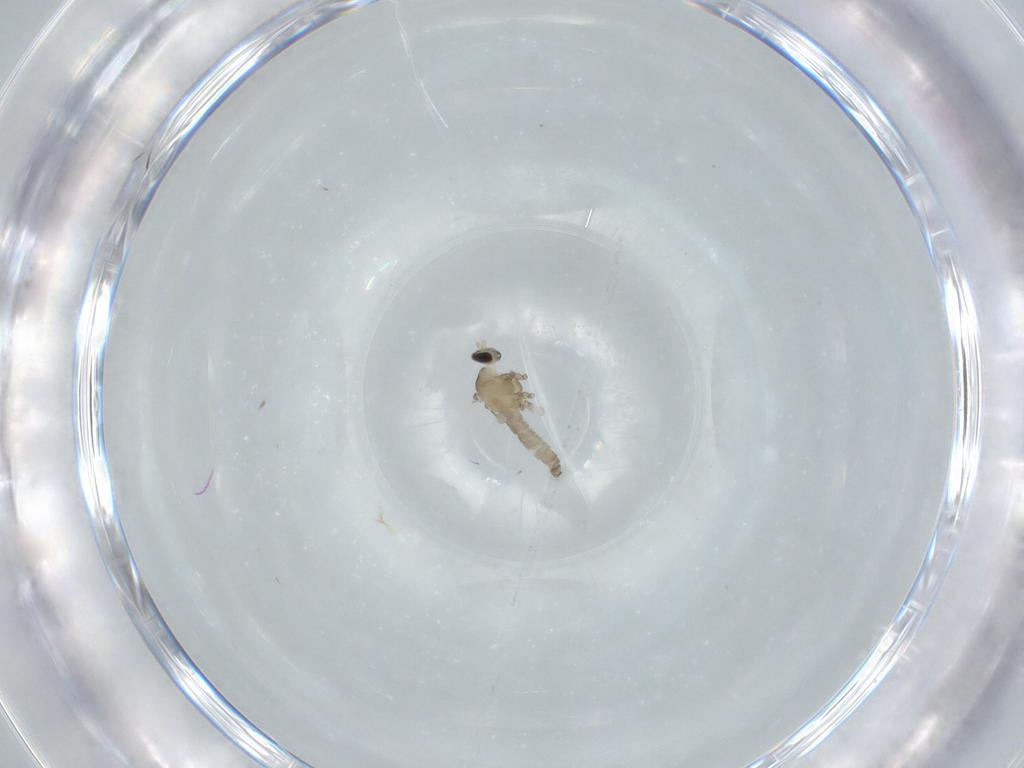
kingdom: Animalia
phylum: Arthropoda
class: Insecta
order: Diptera
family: Cecidomyiidae
